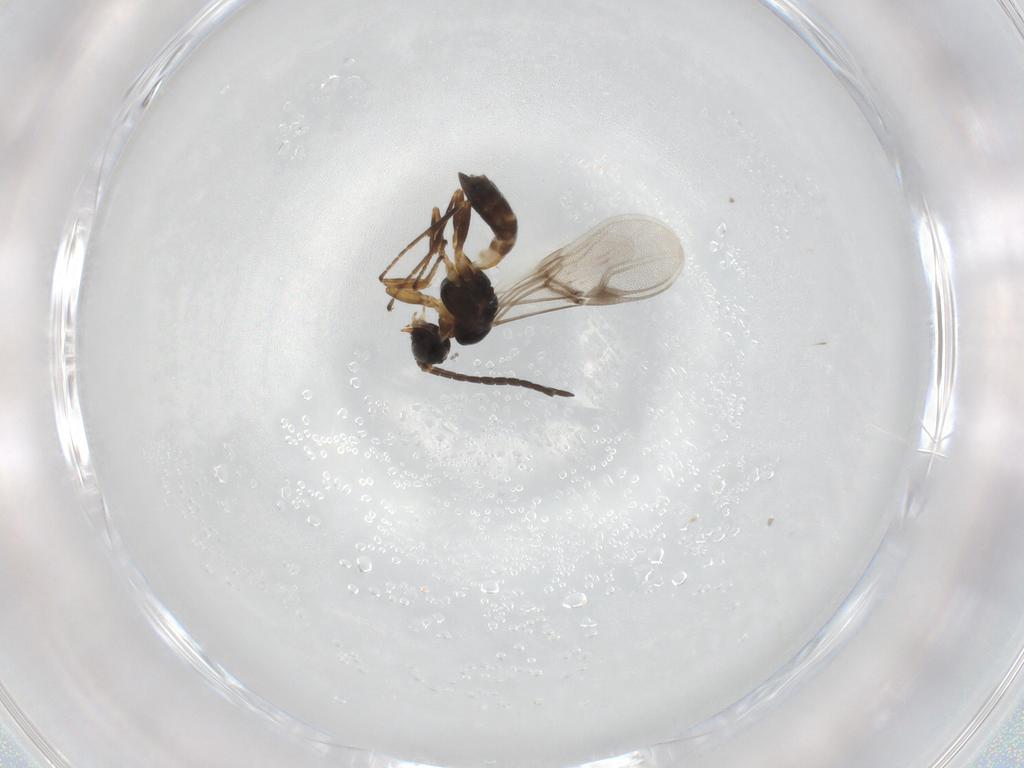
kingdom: Animalia
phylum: Arthropoda
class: Insecta
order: Hymenoptera
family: Braconidae
